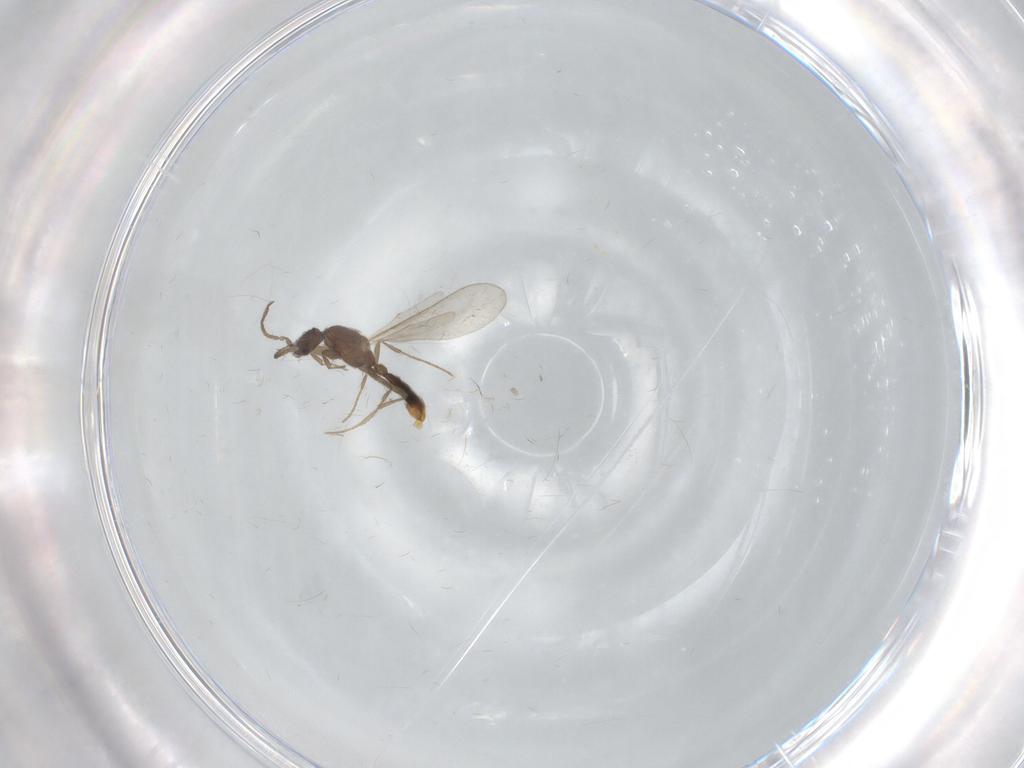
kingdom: Animalia
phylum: Arthropoda
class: Insecta
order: Hymenoptera
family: Formicidae
